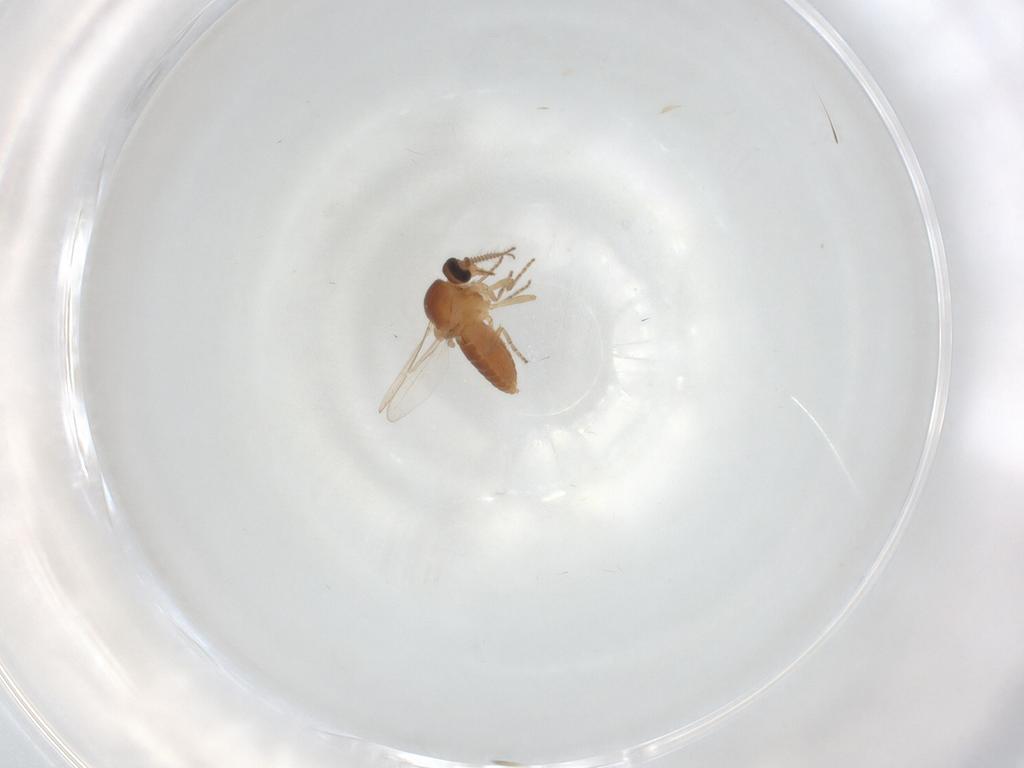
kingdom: Animalia
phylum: Arthropoda
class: Insecta
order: Diptera
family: Ceratopogonidae
